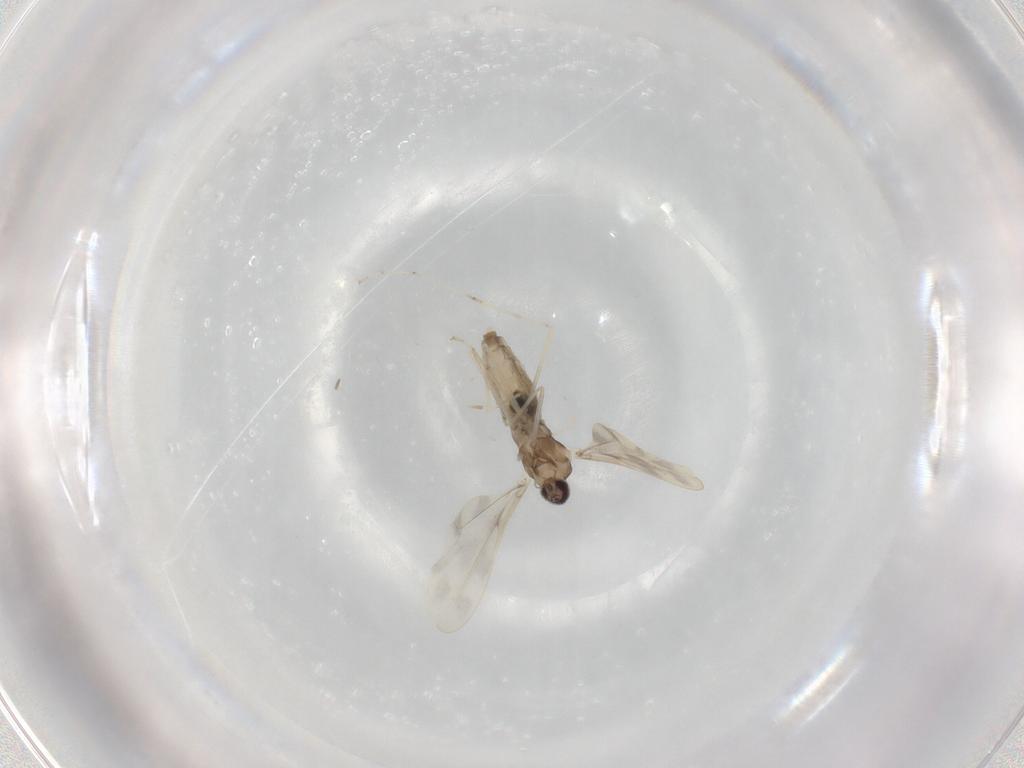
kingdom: Animalia
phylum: Arthropoda
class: Insecta
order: Diptera
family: Cecidomyiidae
